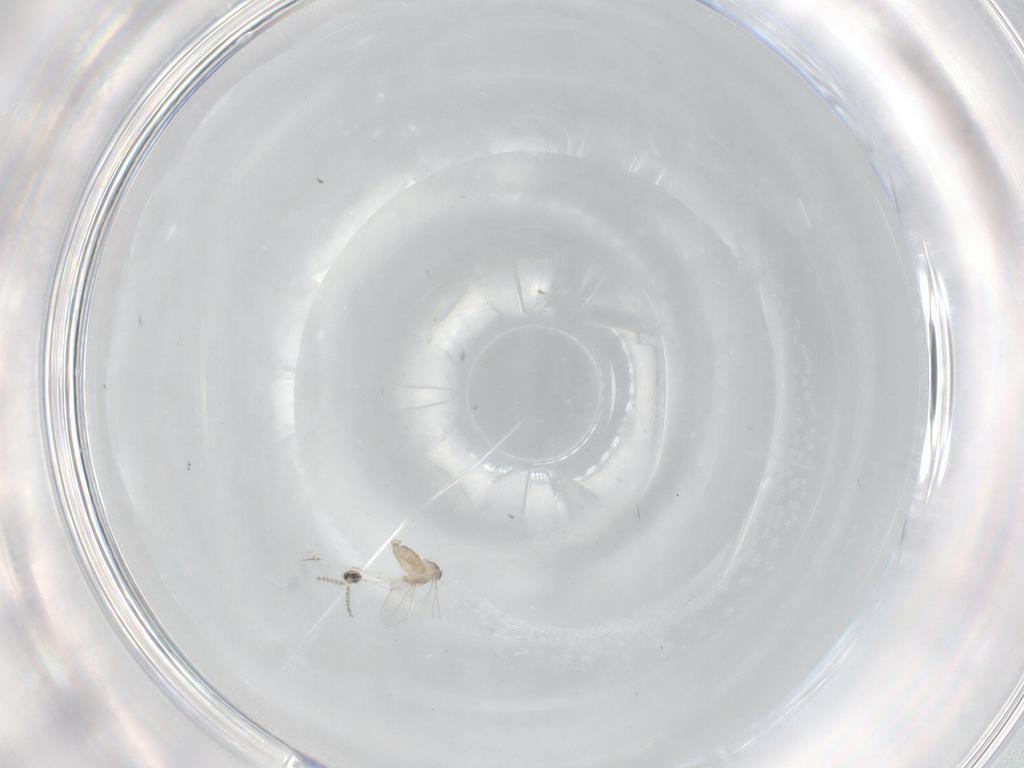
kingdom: Animalia
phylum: Arthropoda
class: Insecta
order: Diptera
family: Cecidomyiidae
